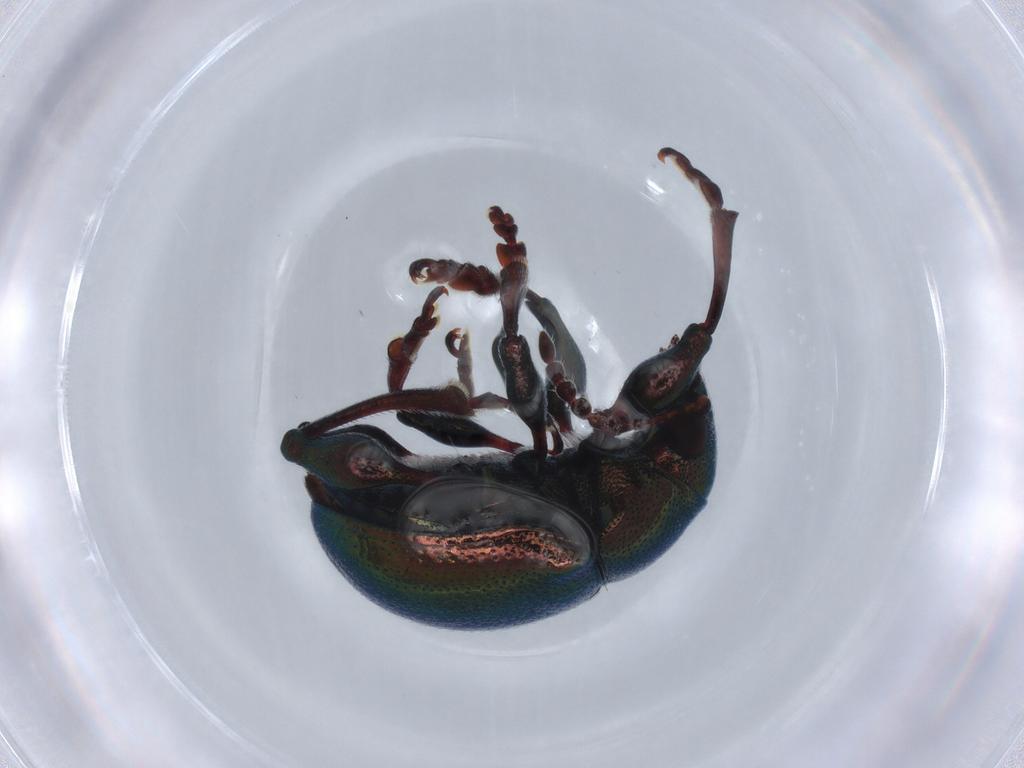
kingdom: Animalia
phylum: Arthropoda
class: Insecta
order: Coleoptera
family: Chrysomelidae
